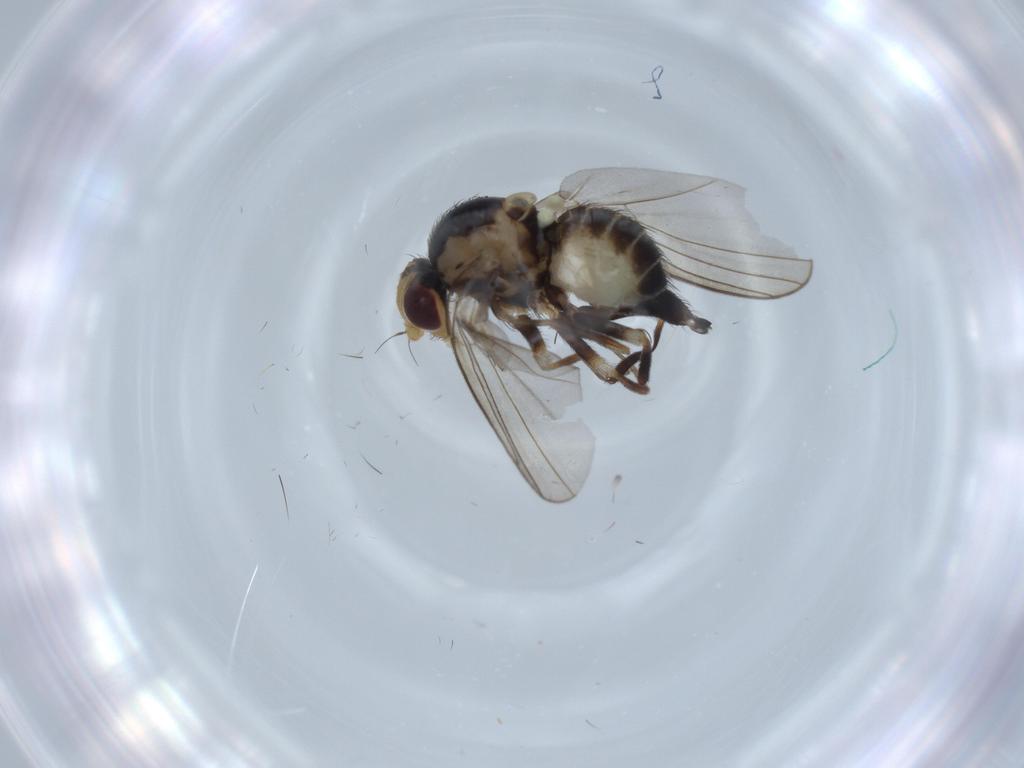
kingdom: Animalia
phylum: Arthropoda
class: Insecta
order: Diptera
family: Agromyzidae
